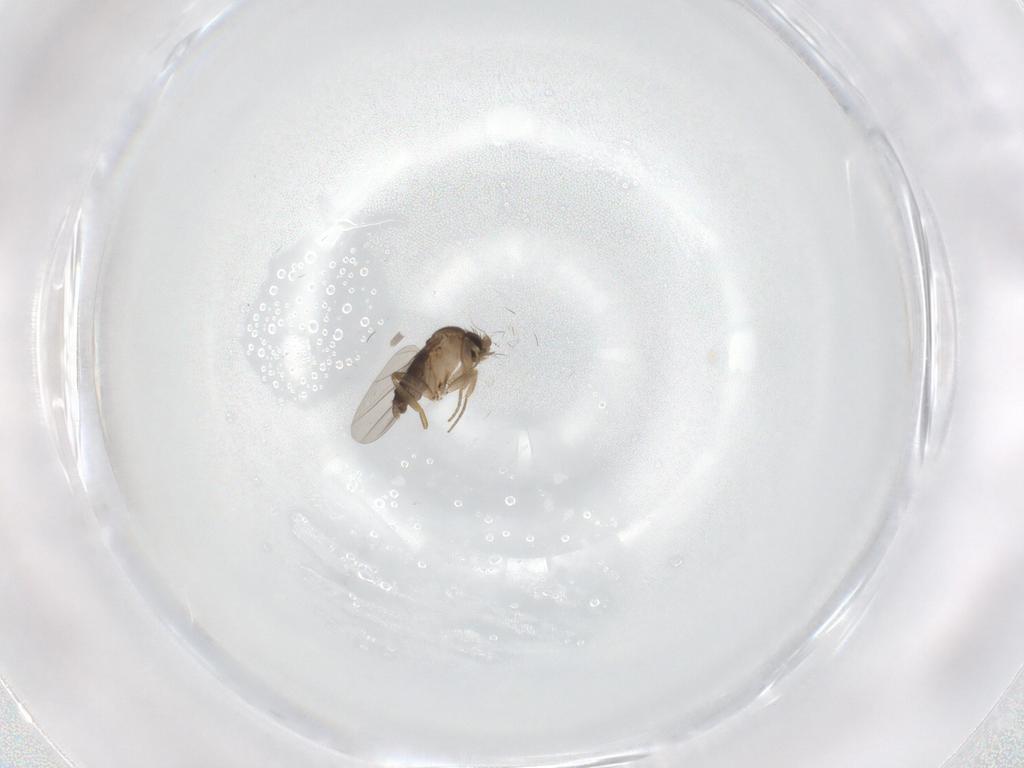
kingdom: Animalia
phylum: Arthropoda
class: Insecta
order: Diptera
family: Phoridae
